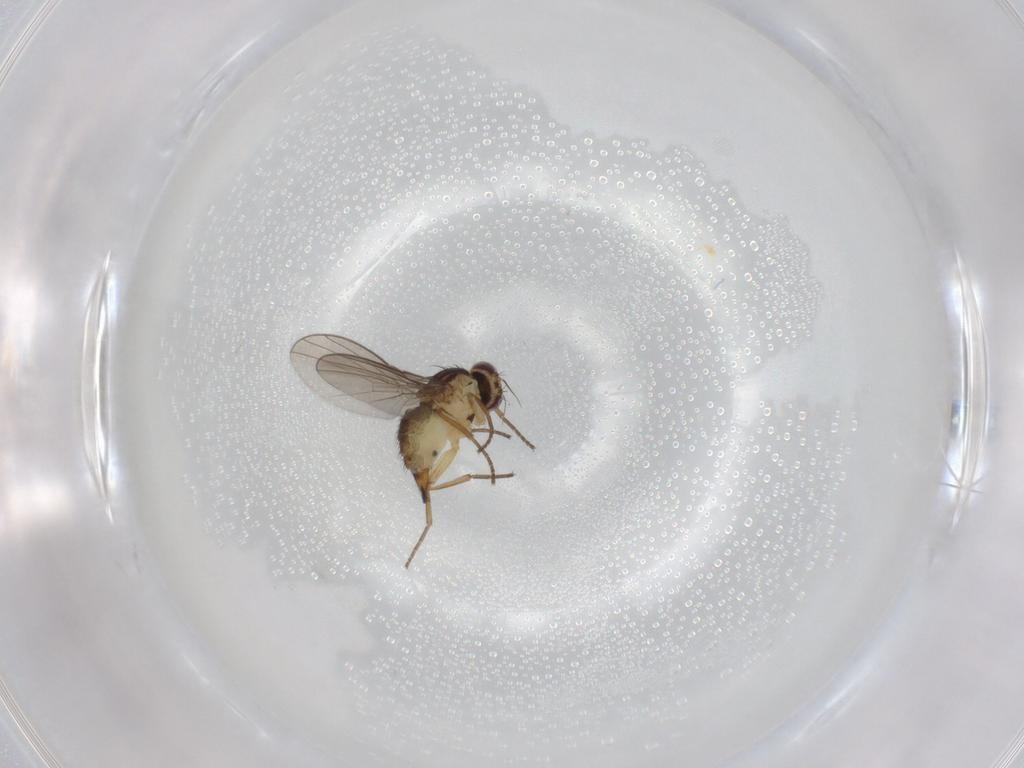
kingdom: Animalia
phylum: Arthropoda
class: Insecta
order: Diptera
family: Agromyzidae
